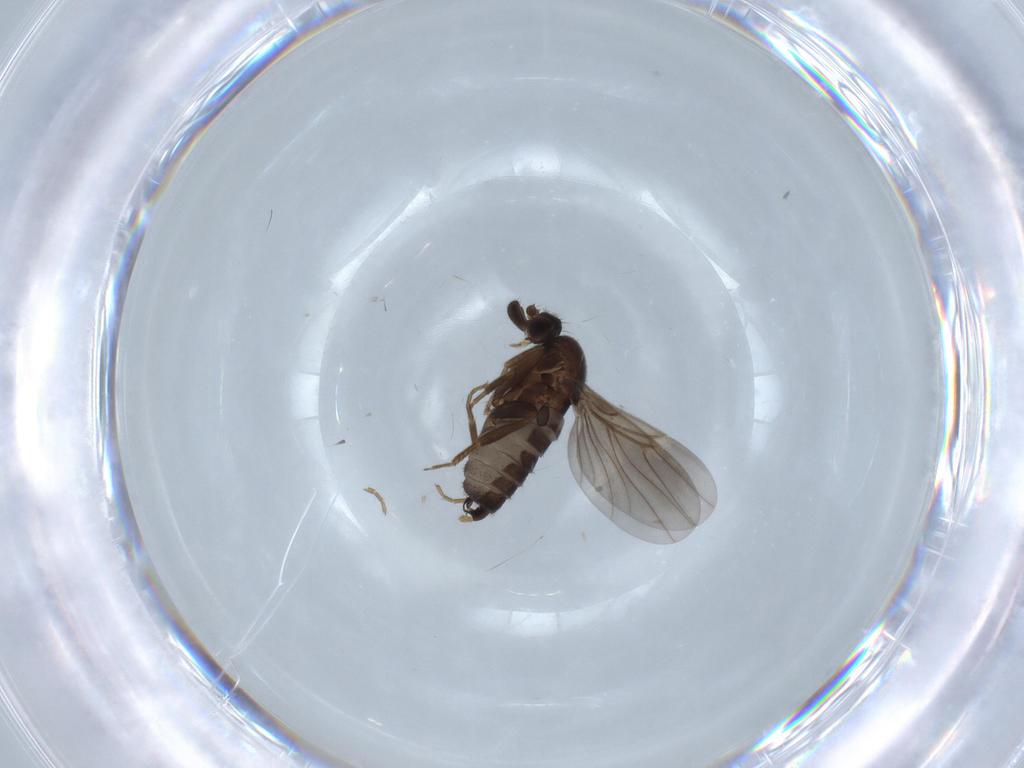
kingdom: Animalia
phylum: Arthropoda
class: Insecta
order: Diptera
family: Phoridae
